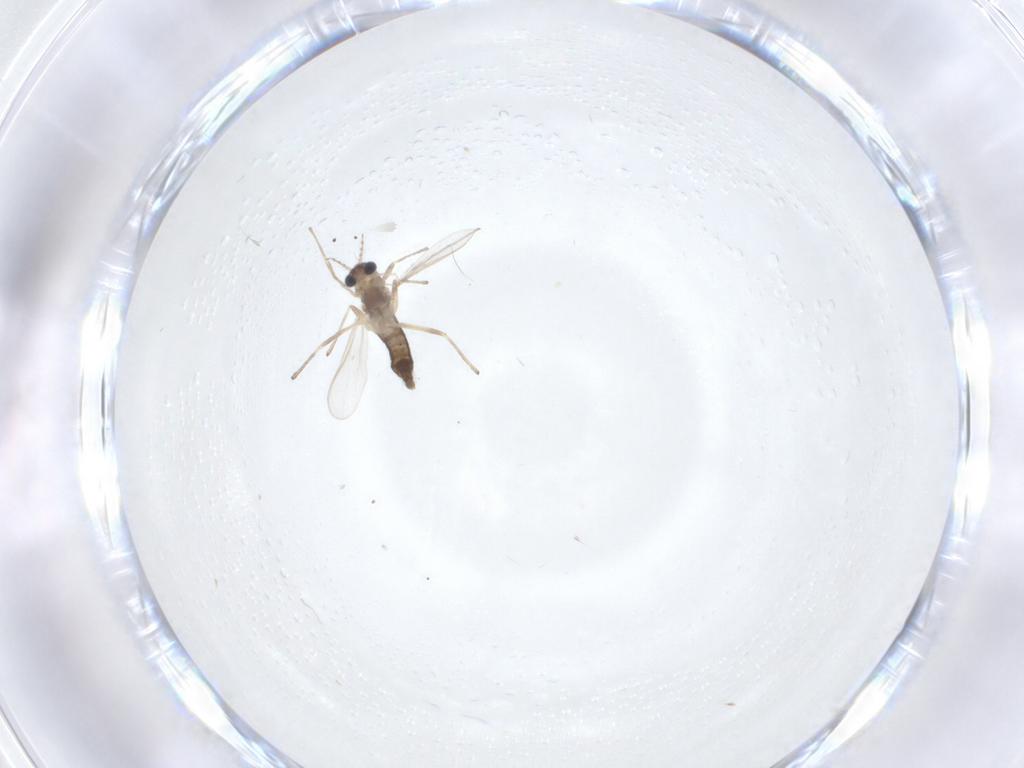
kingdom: Animalia
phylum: Arthropoda
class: Insecta
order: Diptera
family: Chironomidae
